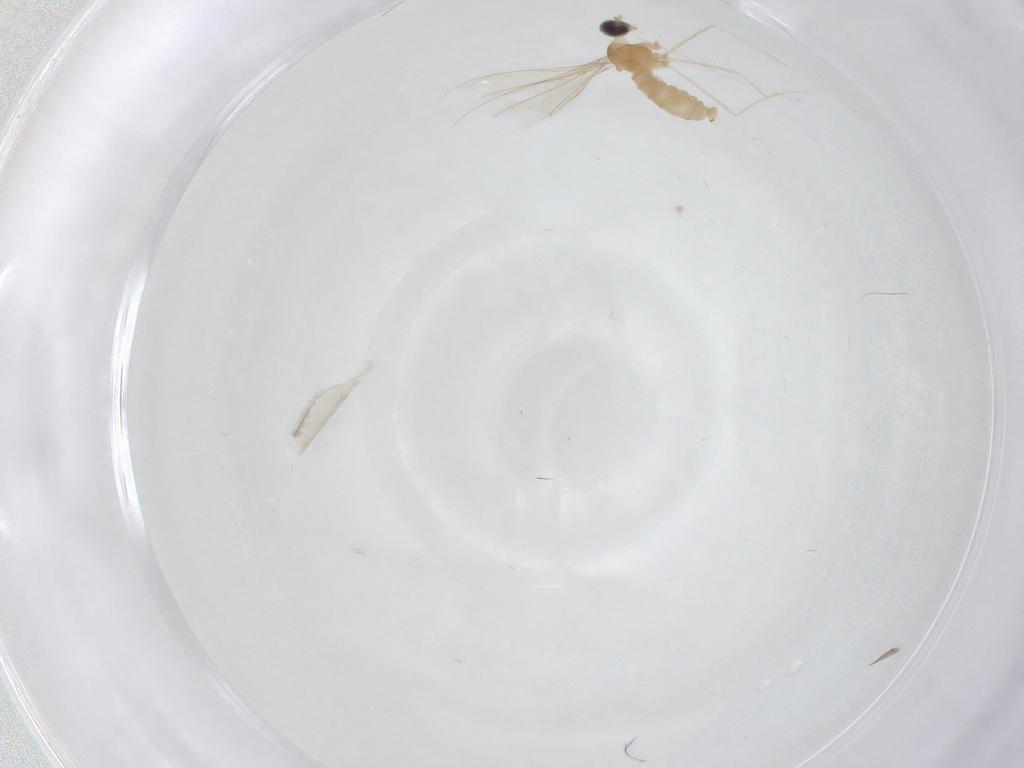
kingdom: Animalia
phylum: Arthropoda
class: Insecta
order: Diptera
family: Cecidomyiidae
